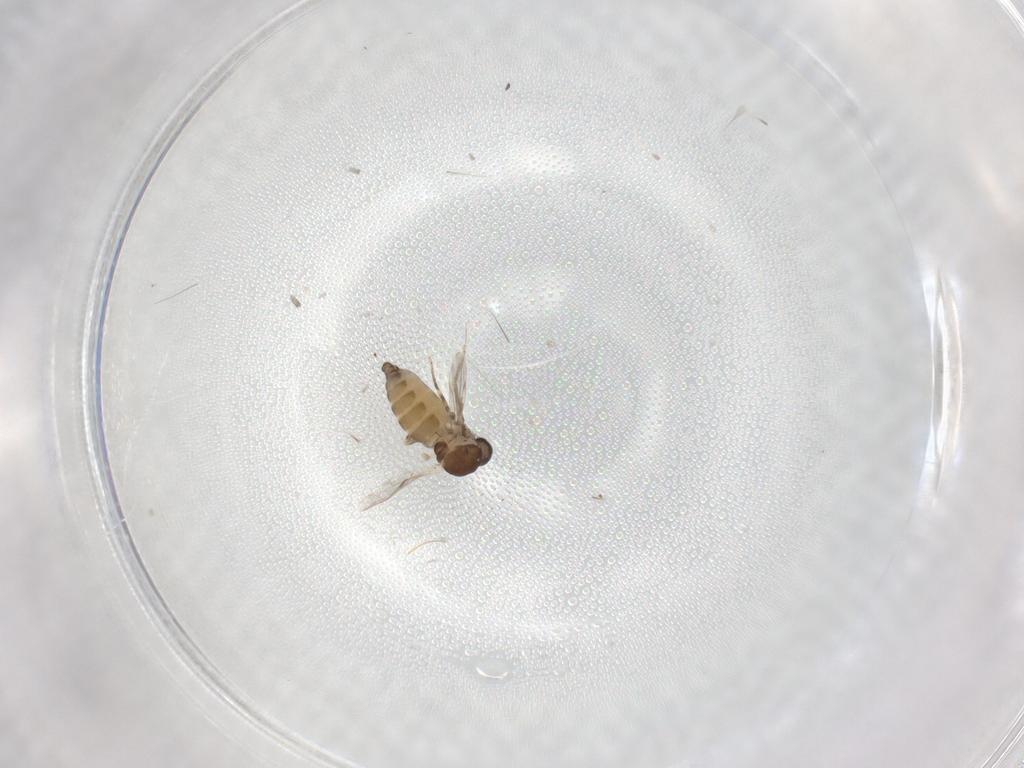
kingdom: Animalia
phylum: Arthropoda
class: Insecta
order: Diptera
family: Ceratopogonidae
